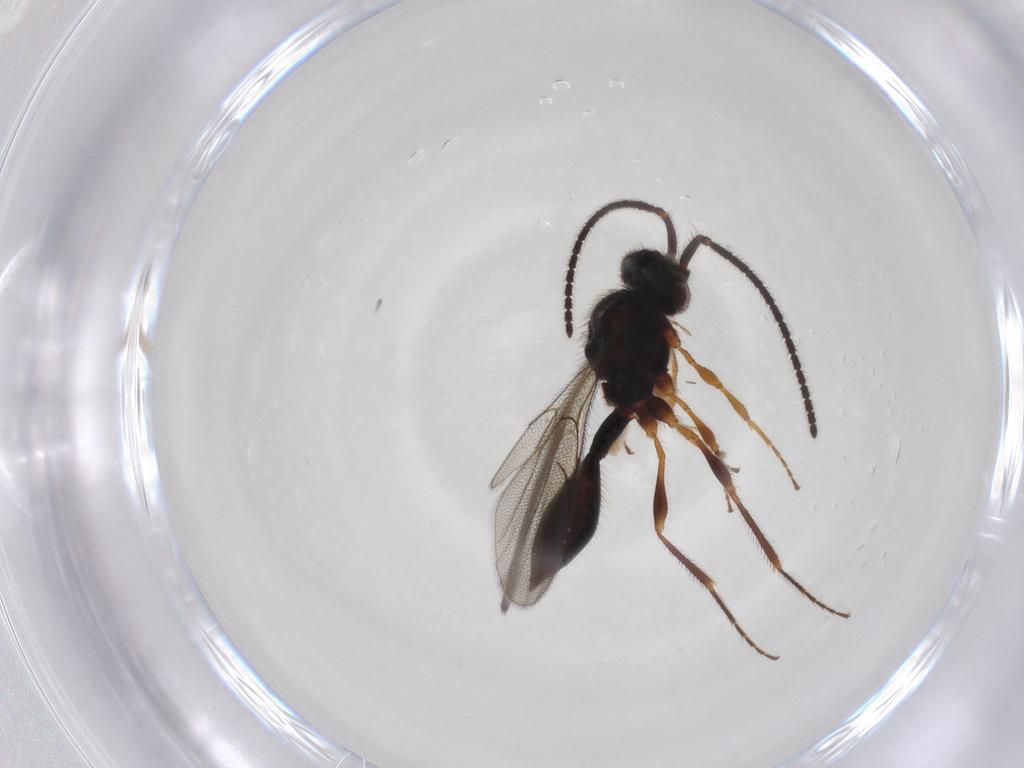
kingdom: Animalia
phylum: Arthropoda
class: Insecta
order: Hymenoptera
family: Diapriidae
